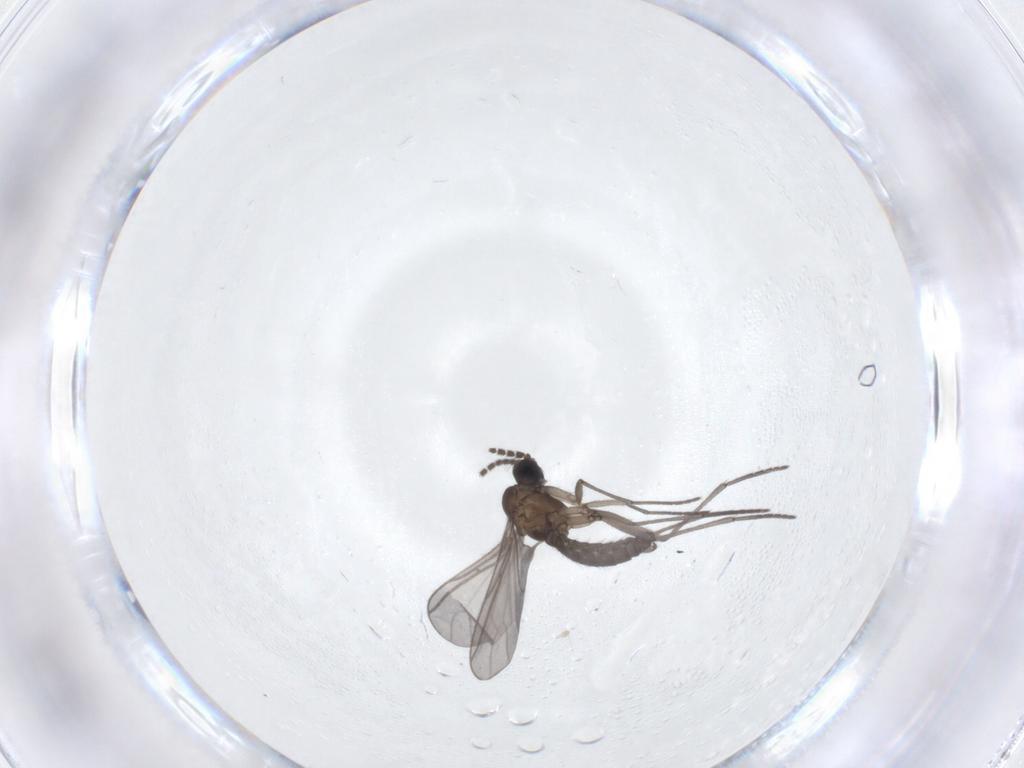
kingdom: Animalia
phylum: Arthropoda
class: Insecta
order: Diptera
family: Sciaridae
